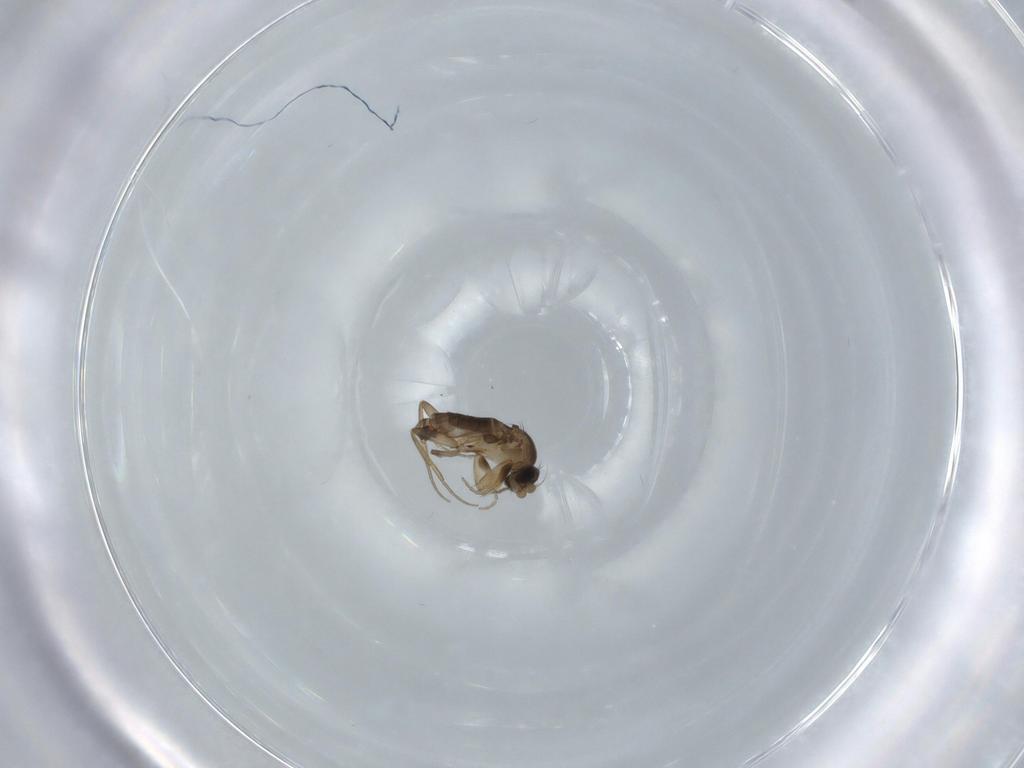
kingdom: Animalia
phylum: Arthropoda
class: Insecta
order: Diptera
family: Phoridae
